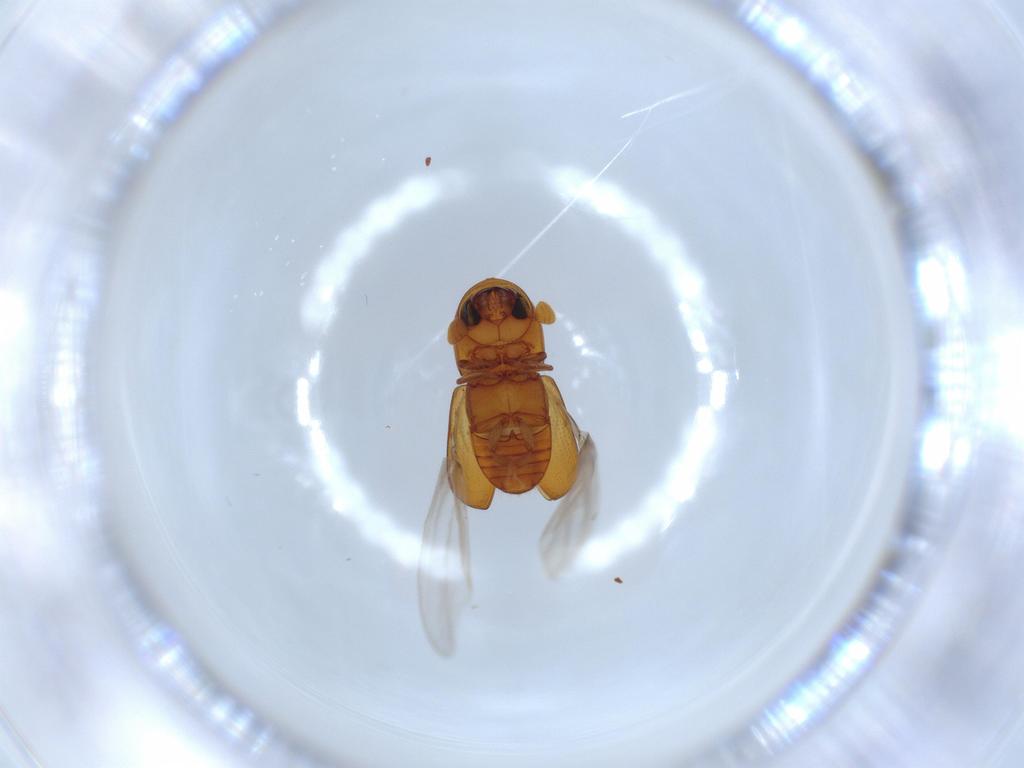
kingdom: Animalia
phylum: Arthropoda
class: Insecta
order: Coleoptera
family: Curculionidae
